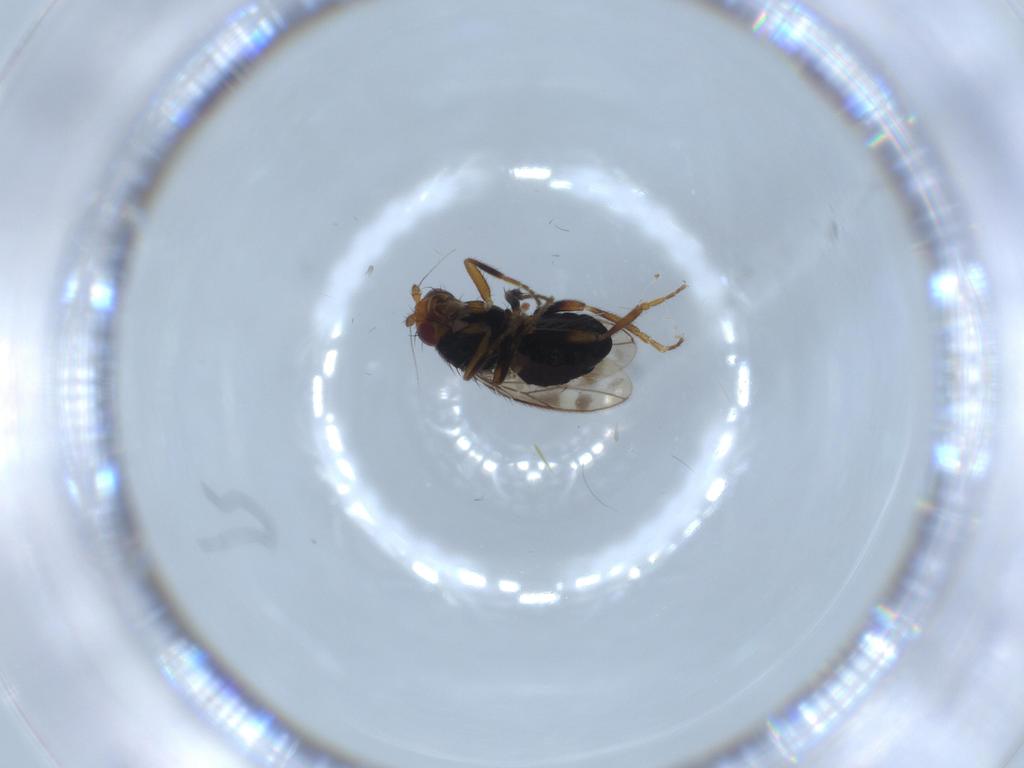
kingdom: Animalia
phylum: Arthropoda
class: Insecta
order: Diptera
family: Sphaeroceridae
